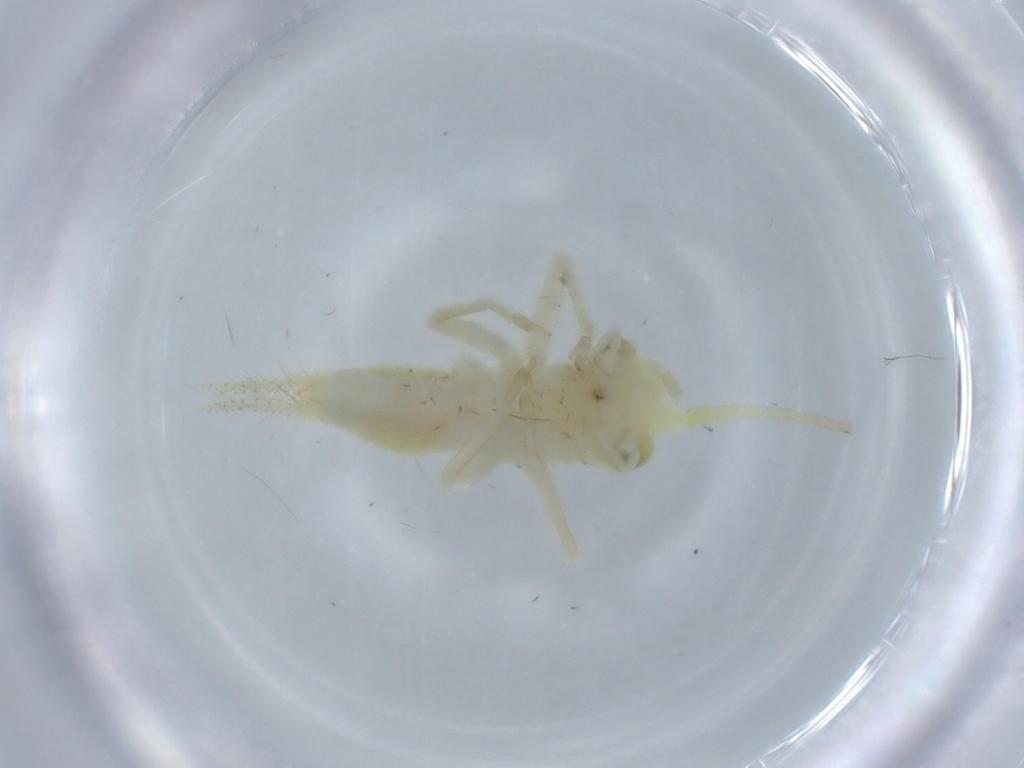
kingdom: Animalia
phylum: Arthropoda
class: Insecta
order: Orthoptera
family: Trigonidiidae
